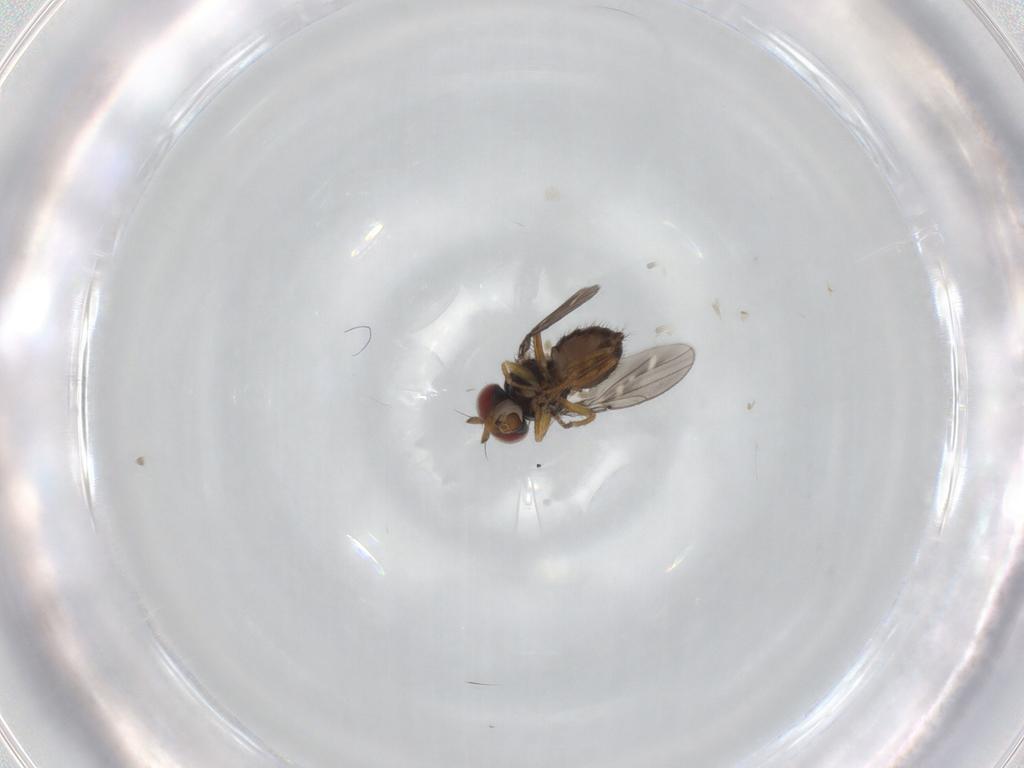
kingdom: Animalia
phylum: Arthropoda
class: Insecta
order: Diptera
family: Ephydridae
